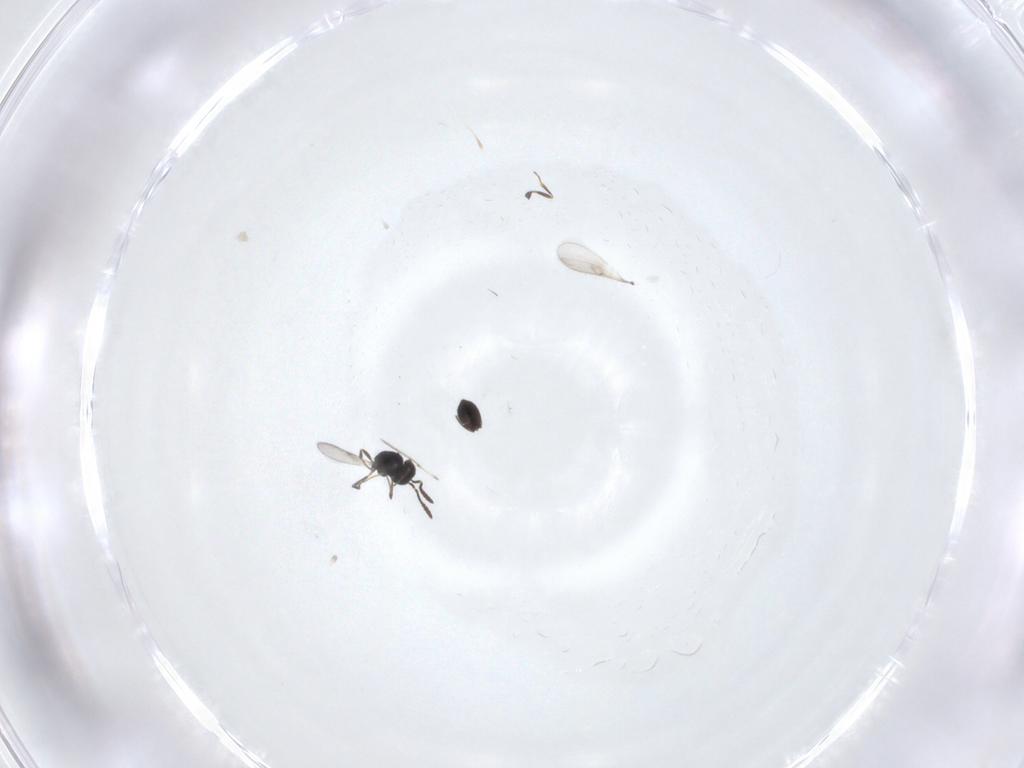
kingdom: Animalia
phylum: Arthropoda
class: Insecta
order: Hymenoptera
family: Scelionidae
